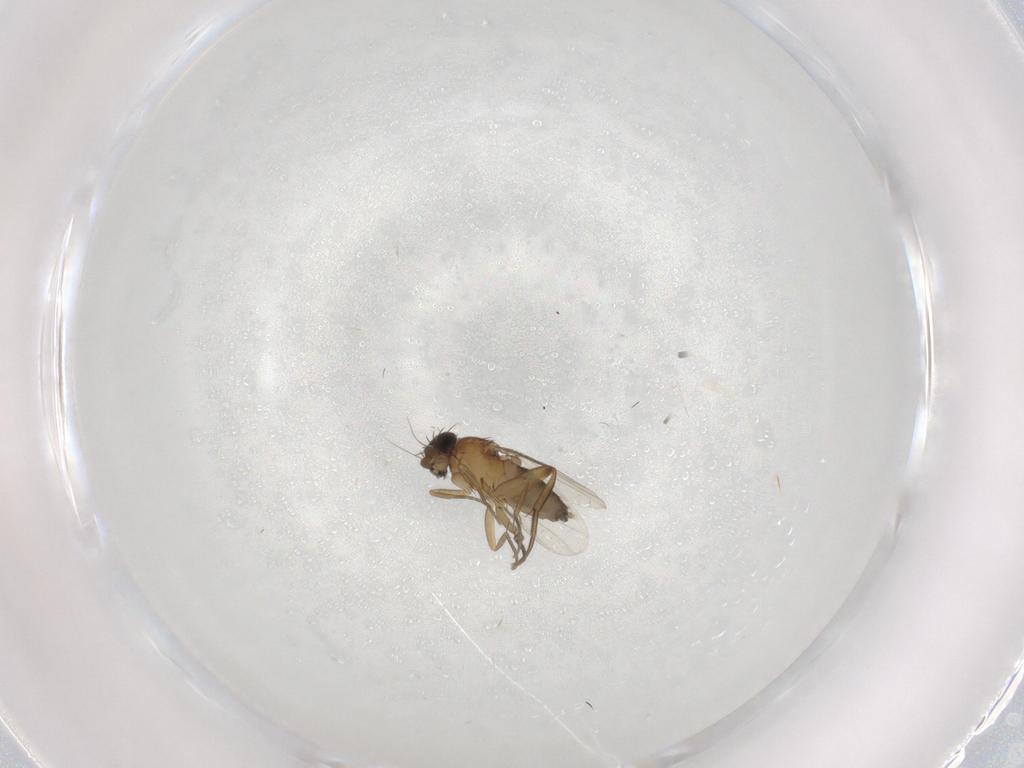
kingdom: Animalia
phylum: Arthropoda
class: Insecta
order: Diptera
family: Phoridae
